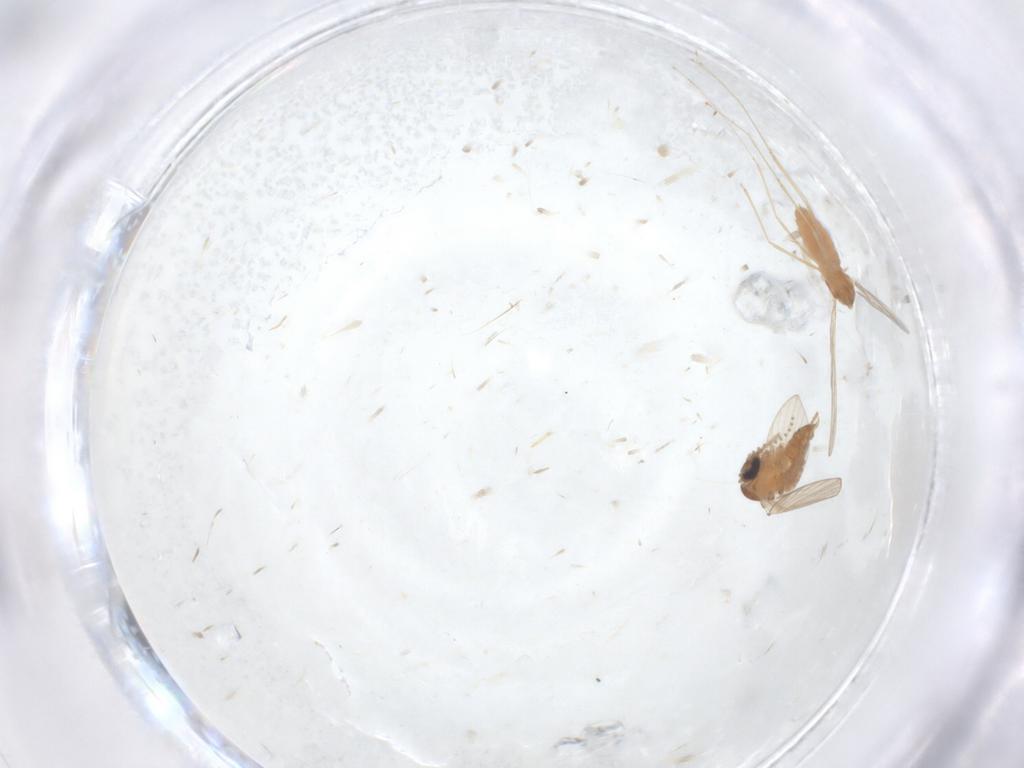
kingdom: Animalia
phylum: Arthropoda
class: Insecta
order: Diptera
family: Cecidomyiidae
